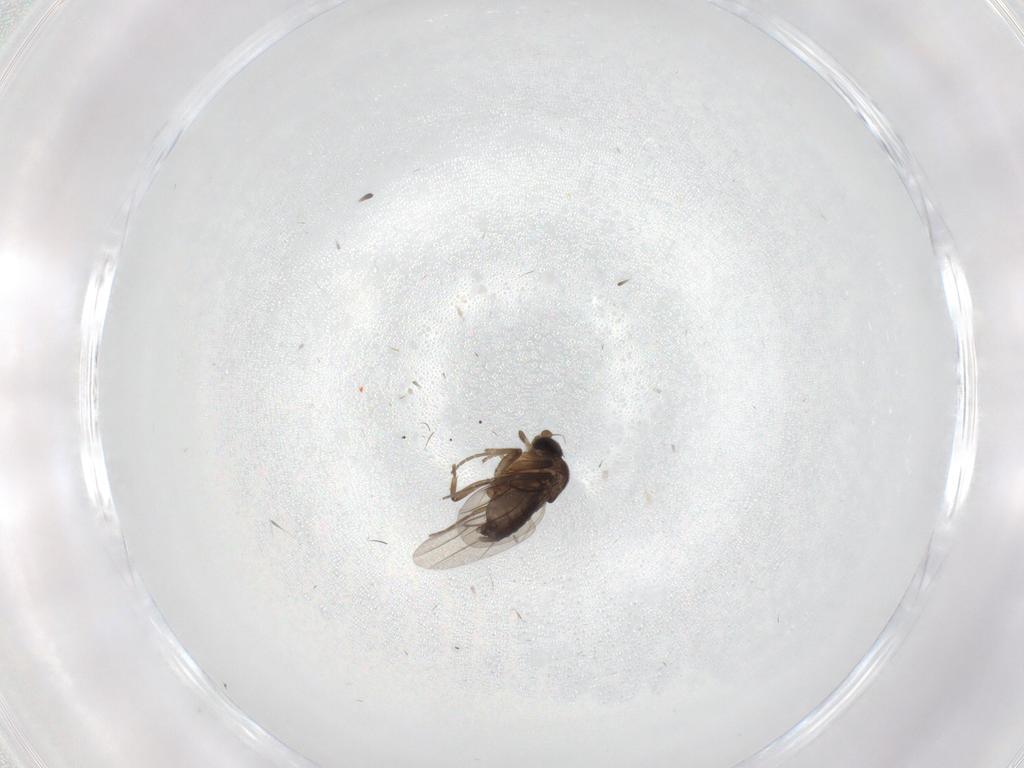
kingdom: Animalia
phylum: Arthropoda
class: Insecta
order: Diptera
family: Phoridae
